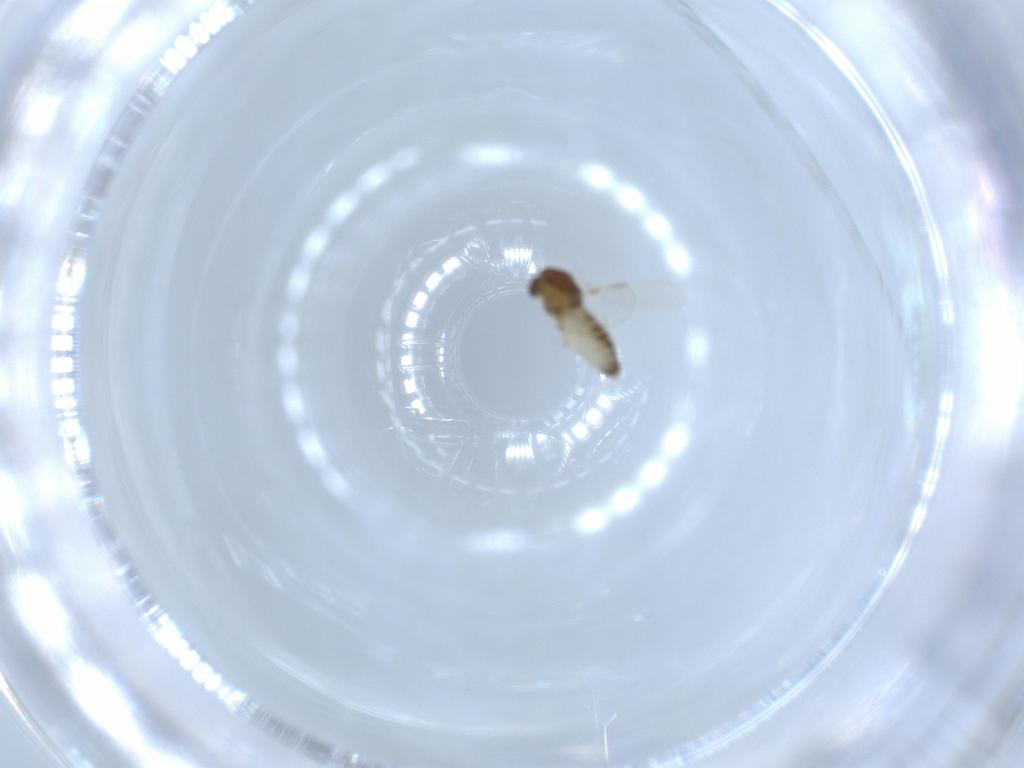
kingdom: Animalia
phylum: Arthropoda
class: Insecta
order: Diptera
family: Chironomidae
